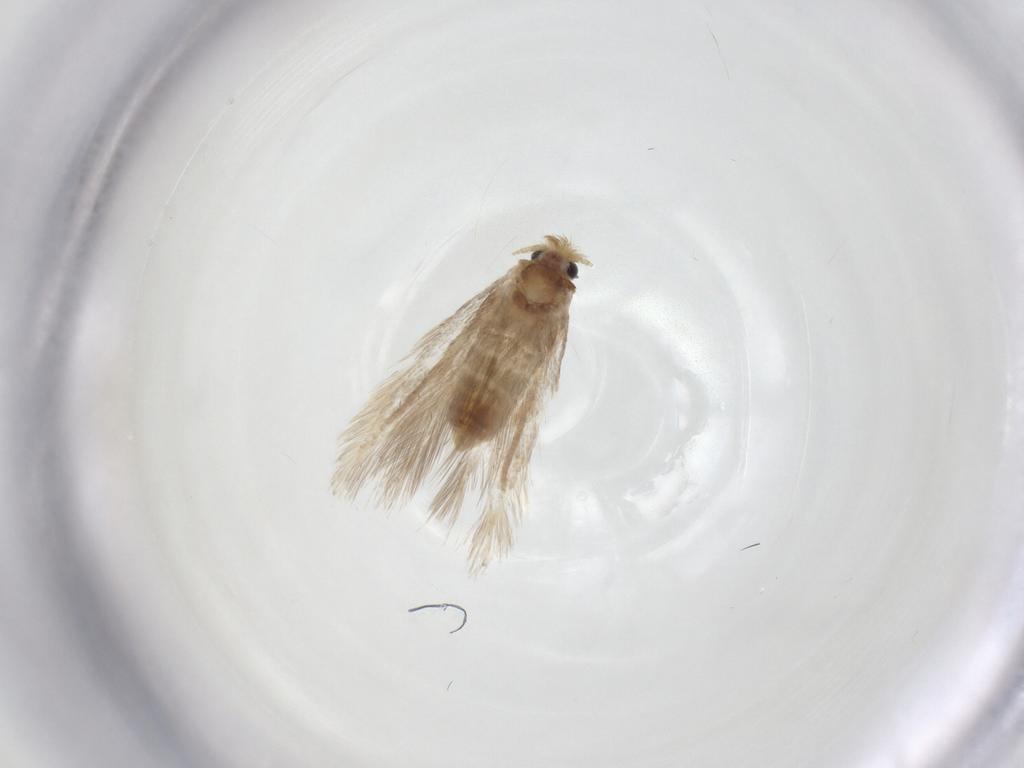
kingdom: Animalia
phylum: Arthropoda
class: Insecta
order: Lepidoptera
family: Nepticulidae
